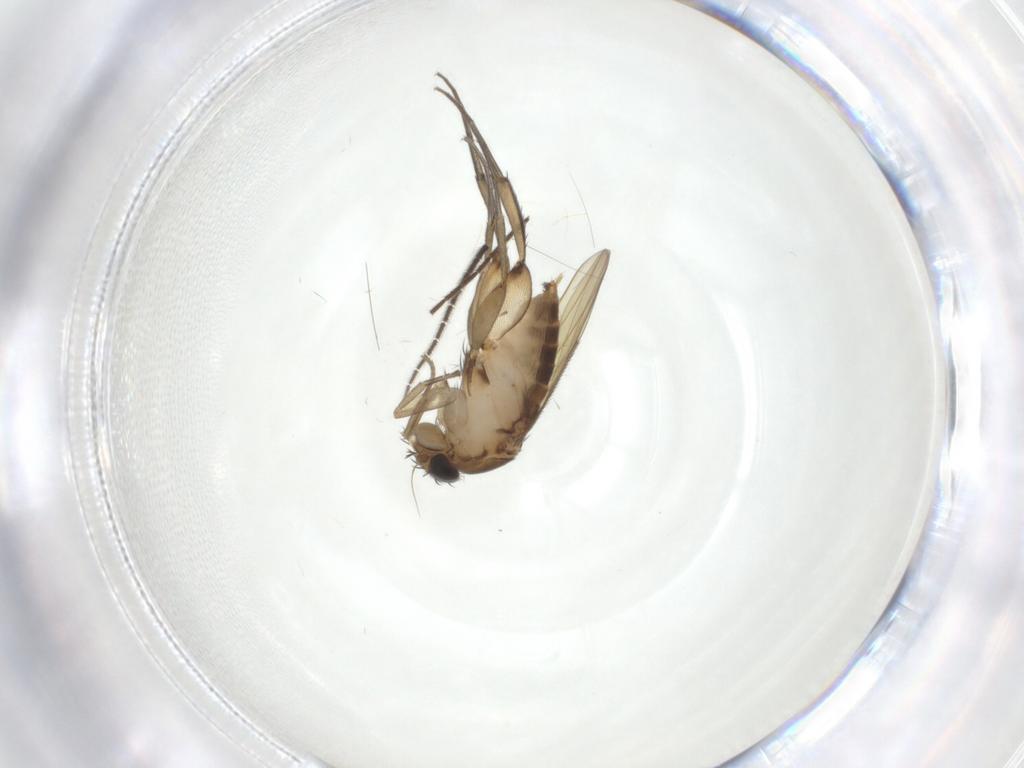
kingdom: Animalia
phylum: Arthropoda
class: Insecta
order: Diptera
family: Phoridae
